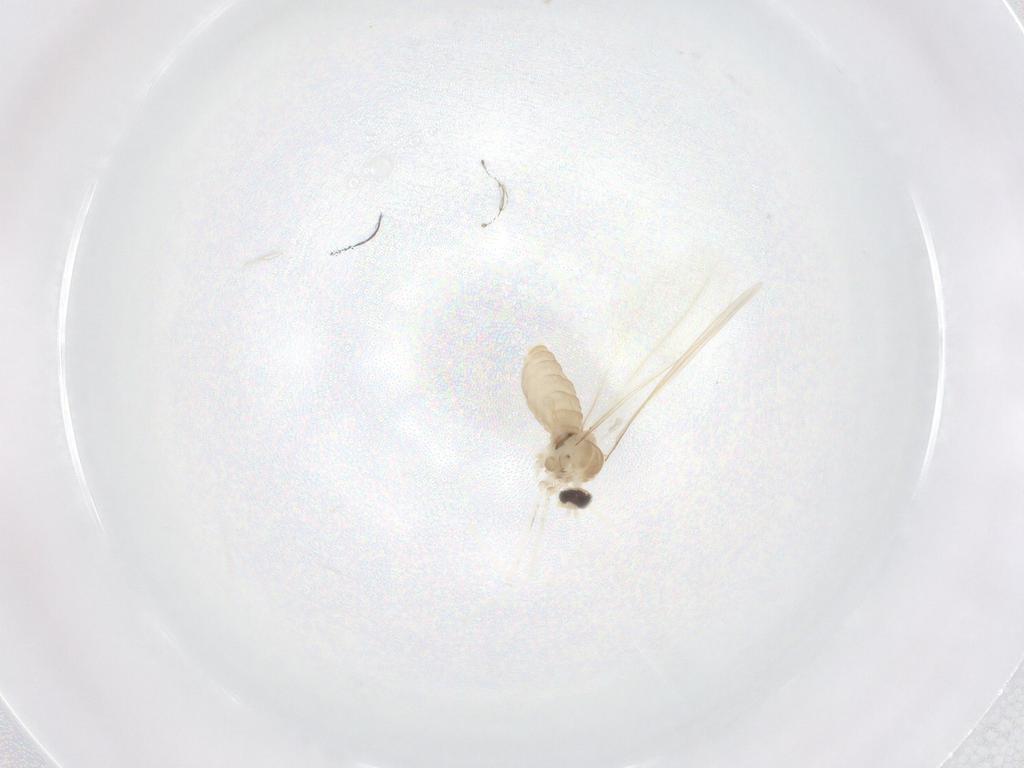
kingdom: Animalia
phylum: Arthropoda
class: Insecta
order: Diptera
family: Cecidomyiidae
